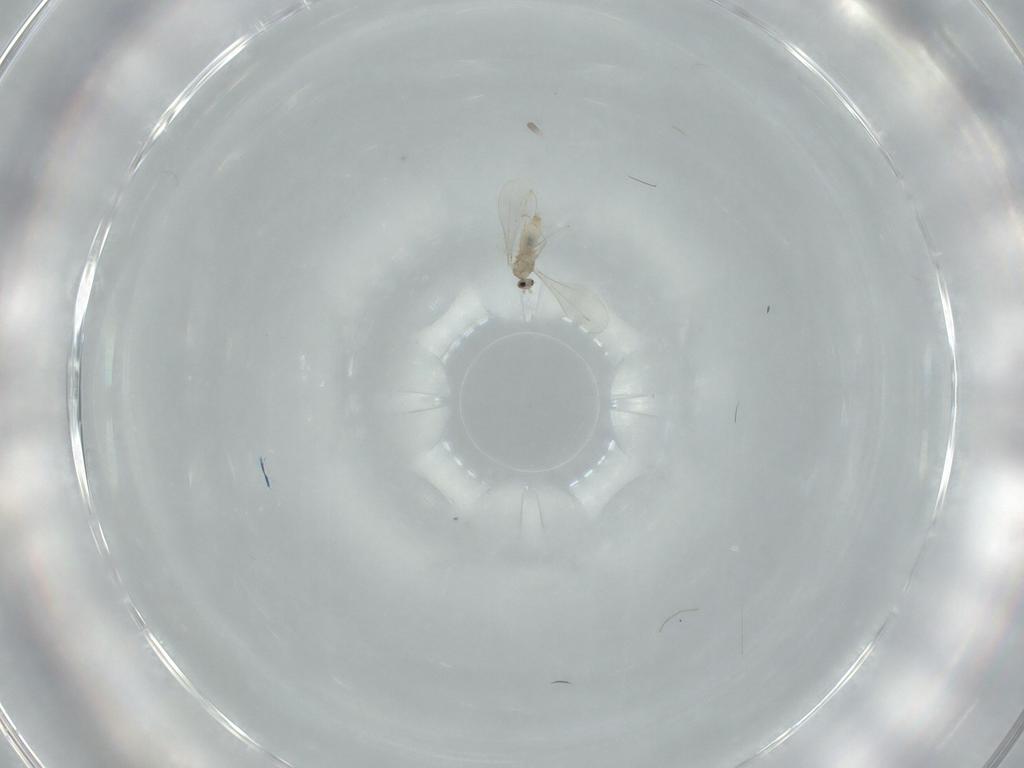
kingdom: Animalia
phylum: Arthropoda
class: Insecta
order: Diptera
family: Cecidomyiidae
